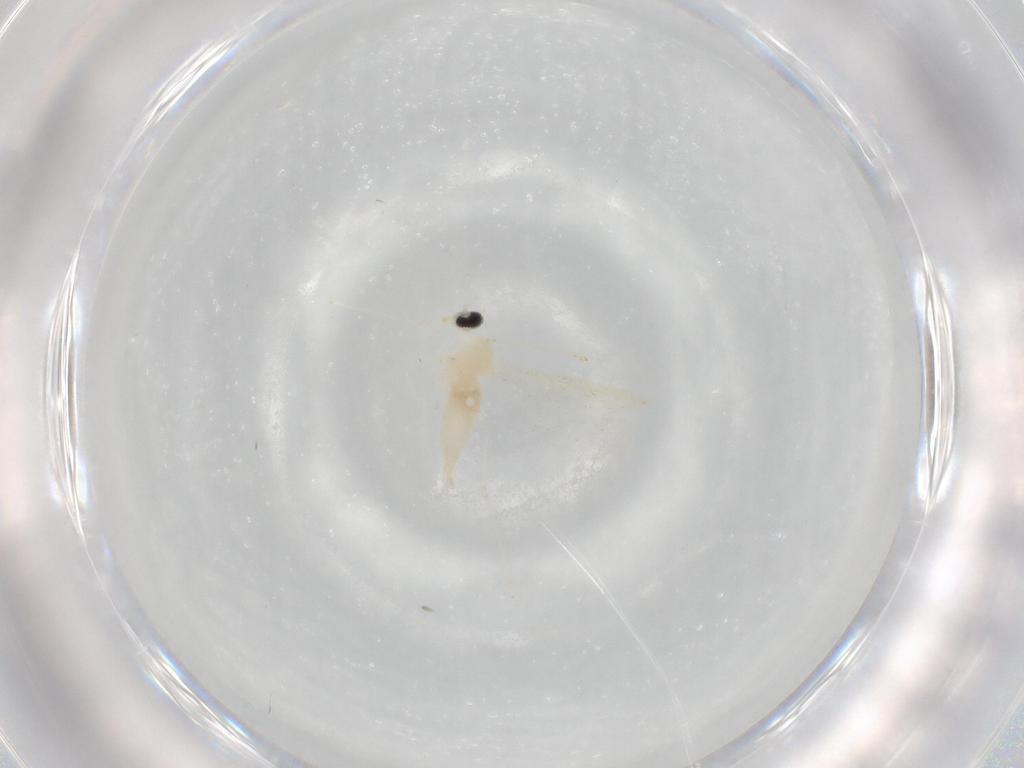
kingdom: Animalia
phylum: Arthropoda
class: Insecta
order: Diptera
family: Cecidomyiidae
